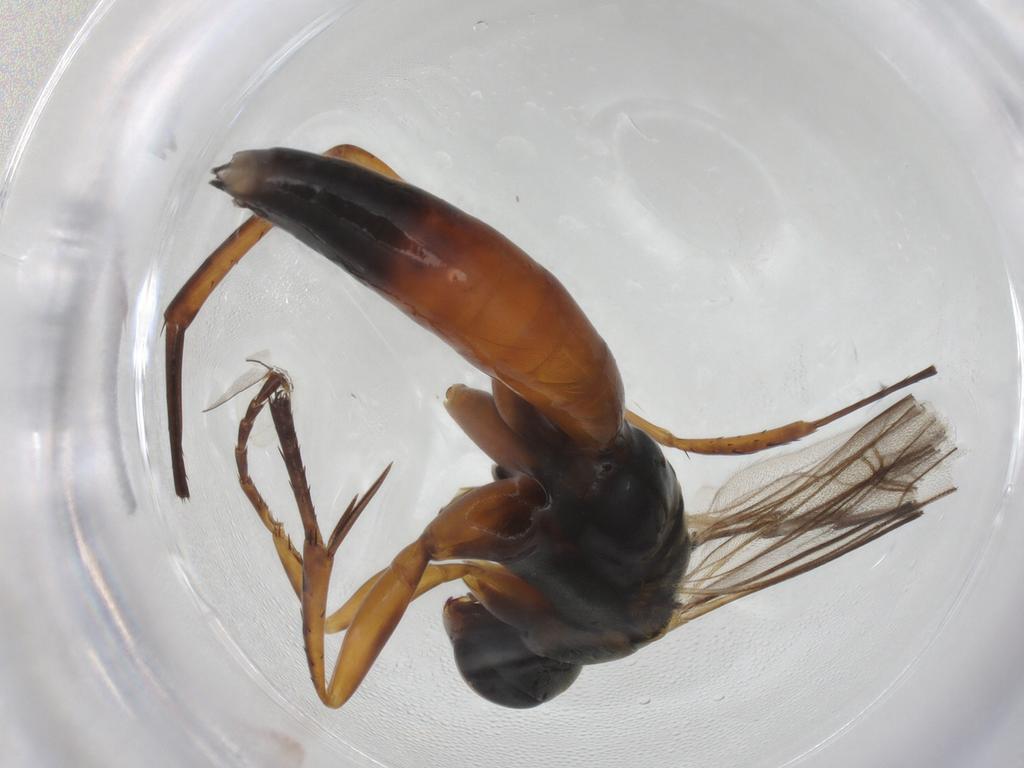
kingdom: Animalia
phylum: Arthropoda
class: Insecta
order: Hymenoptera
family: Pompilidae
